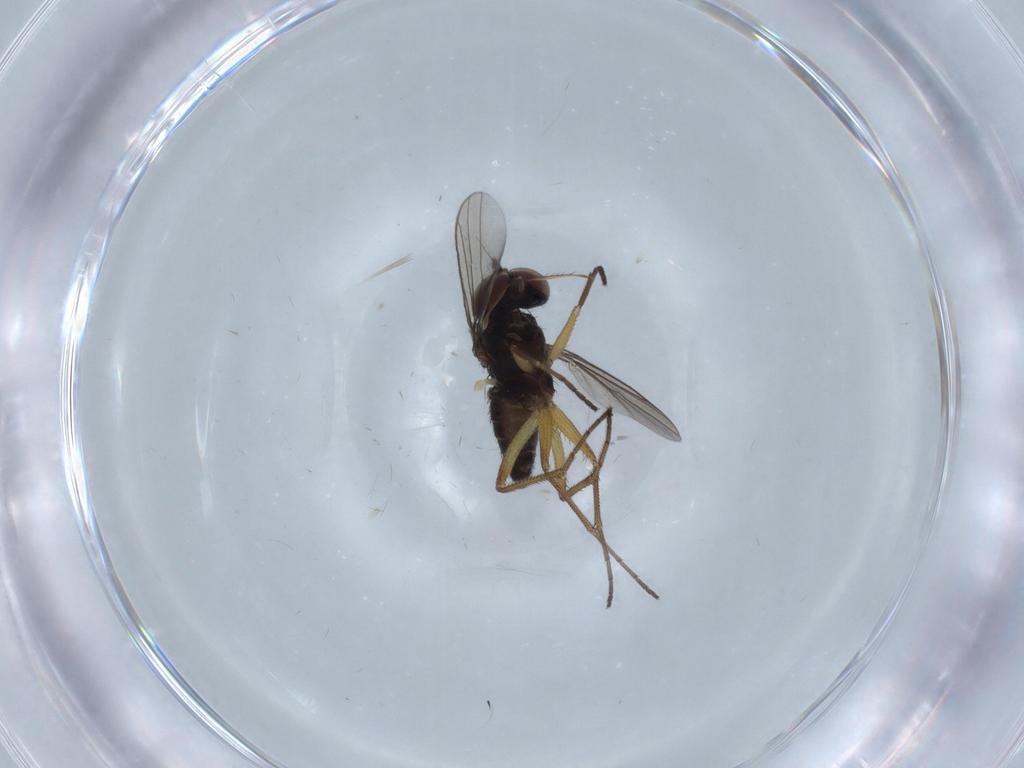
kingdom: Animalia
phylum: Arthropoda
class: Insecta
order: Diptera
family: Dolichopodidae
